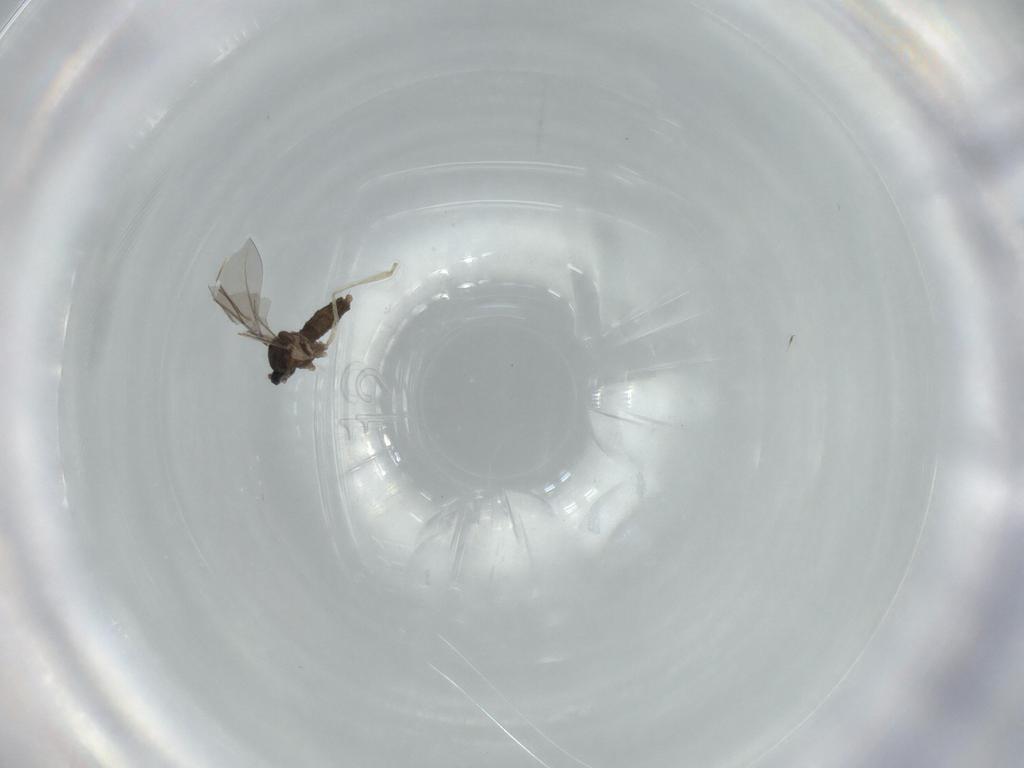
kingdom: Animalia
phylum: Arthropoda
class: Insecta
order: Diptera
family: Cecidomyiidae
